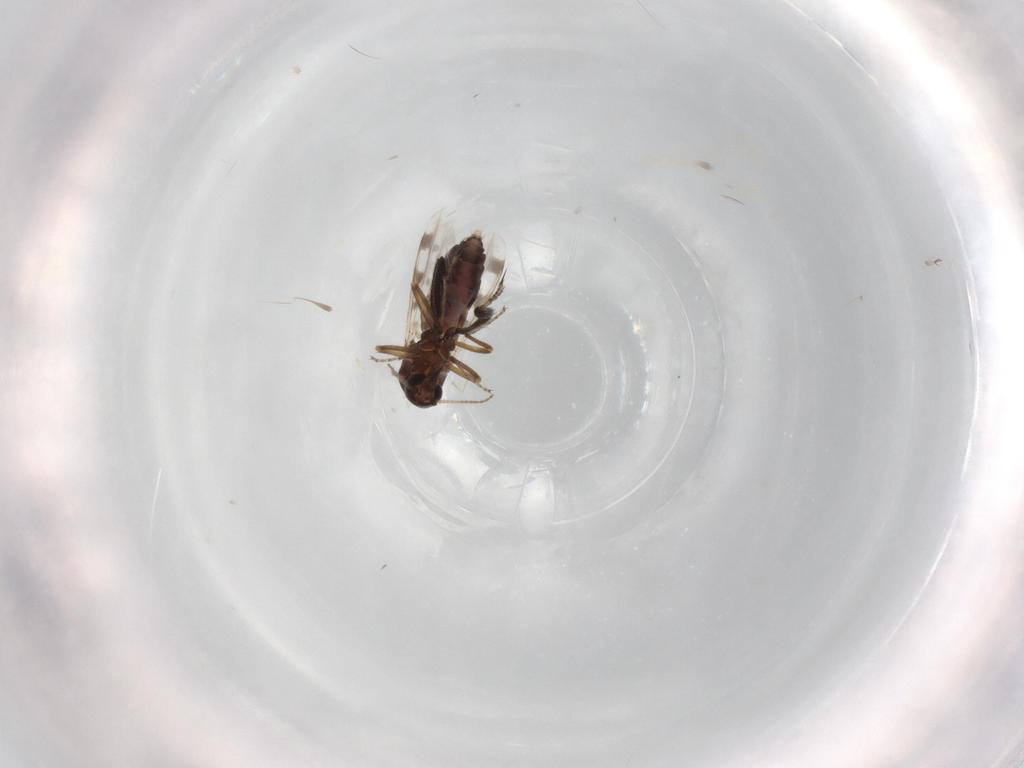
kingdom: Animalia
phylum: Arthropoda
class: Insecta
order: Diptera
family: Ceratopogonidae
